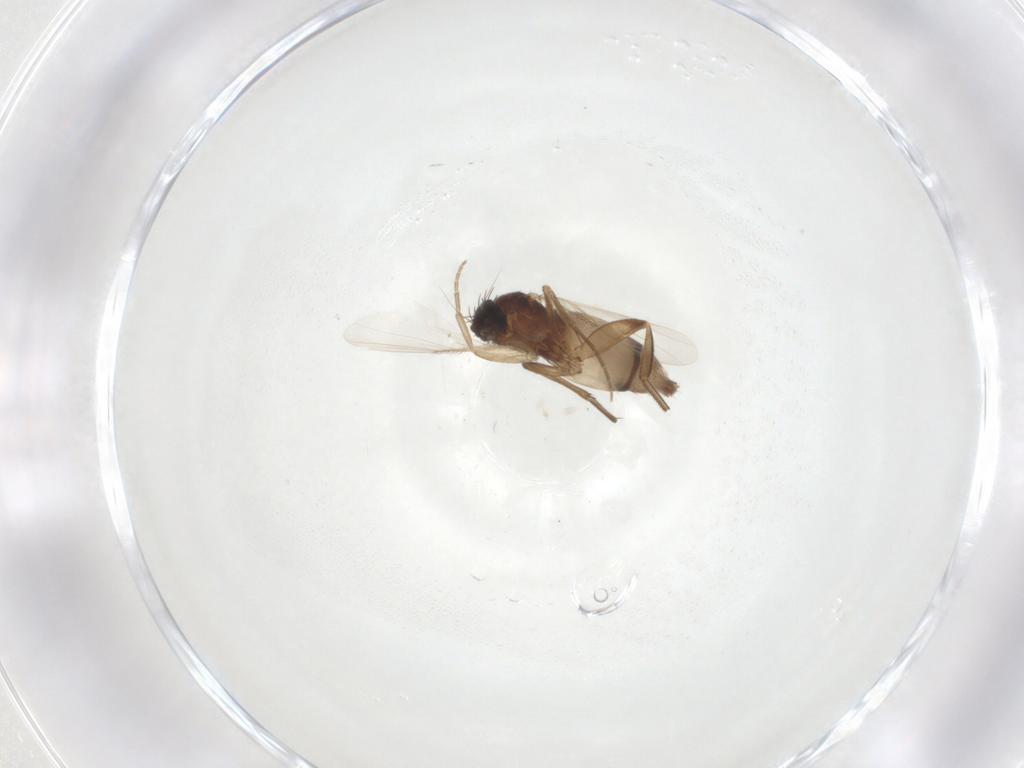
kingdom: Animalia
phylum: Arthropoda
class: Insecta
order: Diptera
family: Phoridae
